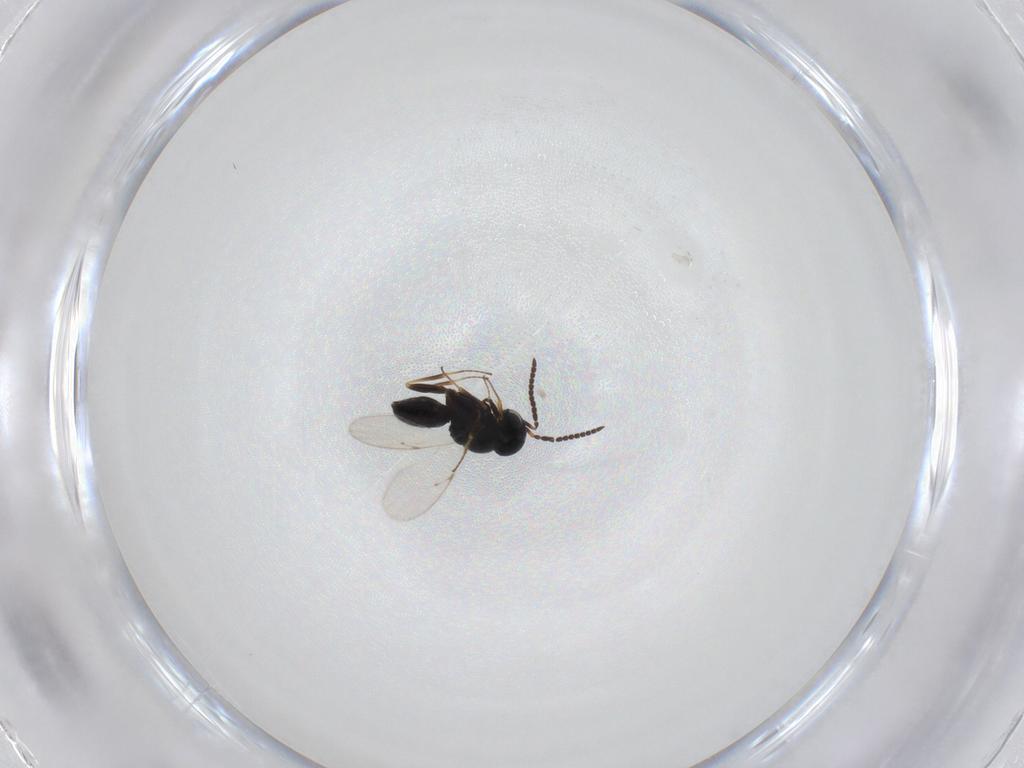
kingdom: Animalia
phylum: Arthropoda
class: Insecta
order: Hymenoptera
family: Scelionidae
